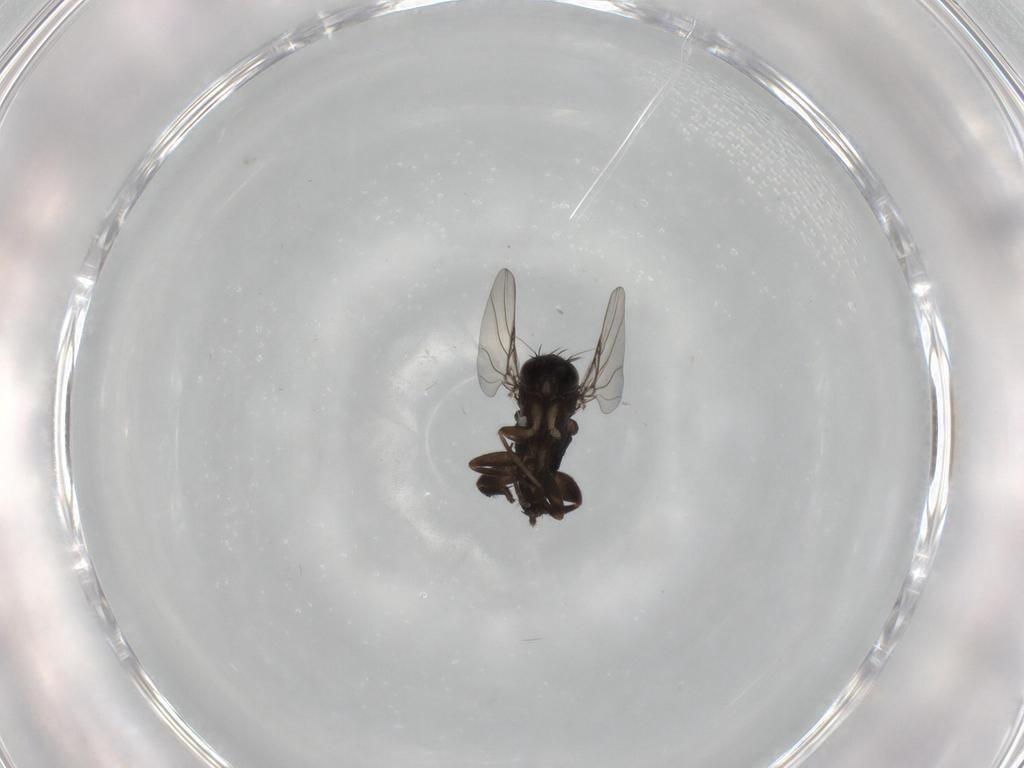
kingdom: Animalia
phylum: Arthropoda
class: Insecta
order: Diptera
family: Phoridae
